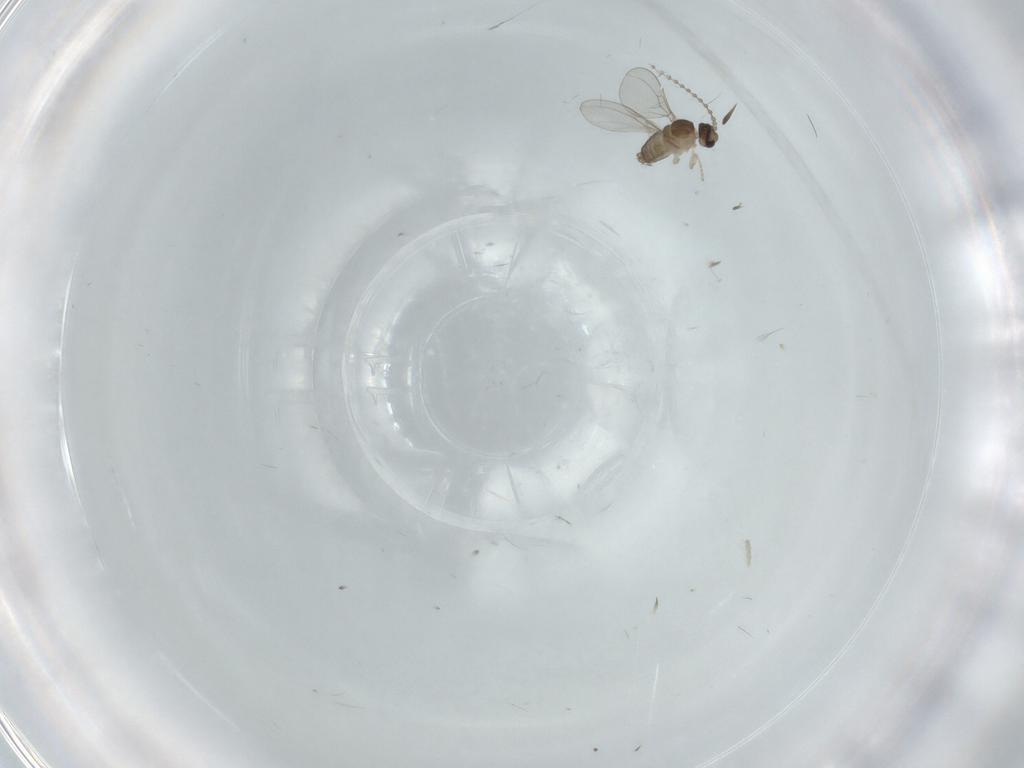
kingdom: Animalia
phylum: Arthropoda
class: Insecta
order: Diptera
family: Cecidomyiidae
